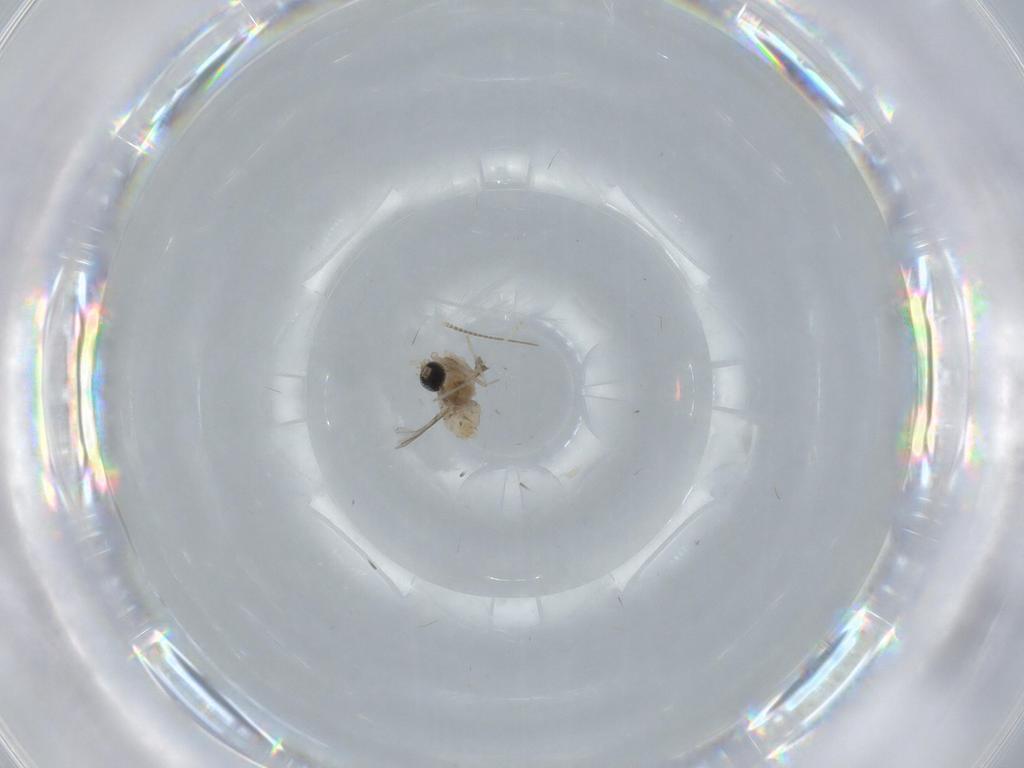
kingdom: Animalia
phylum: Arthropoda
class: Insecta
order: Diptera
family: Cecidomyiidae
